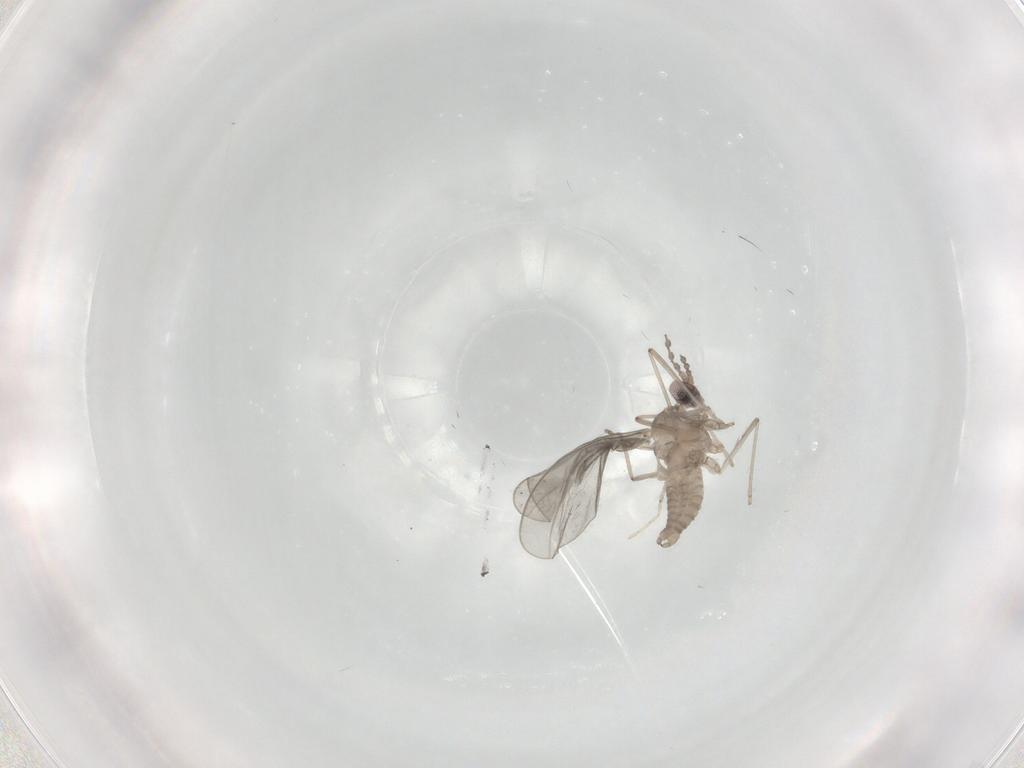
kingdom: Animalia
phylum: Arthropoda
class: Insecta
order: Diptera
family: Cecidomyiidae
